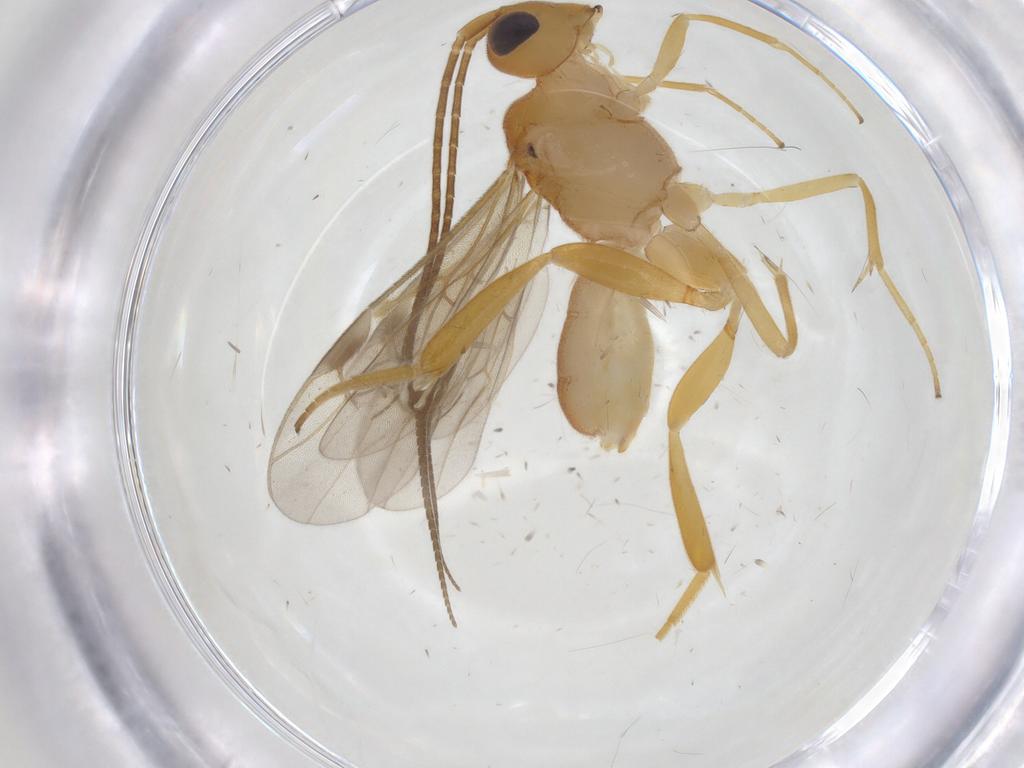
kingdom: Animalia
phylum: Arthropoda
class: Insecta
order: Hymenoptera
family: Braconidae
